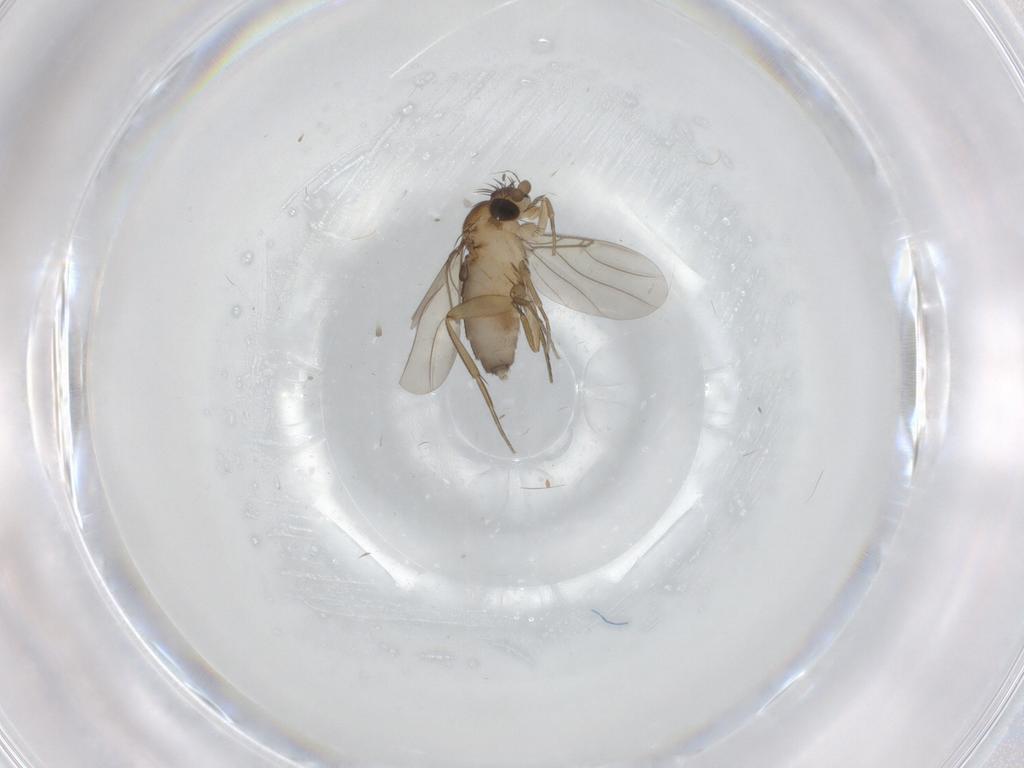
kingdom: Animalia
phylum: Arthropoda
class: Insecta
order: Diptera
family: Phoridae
